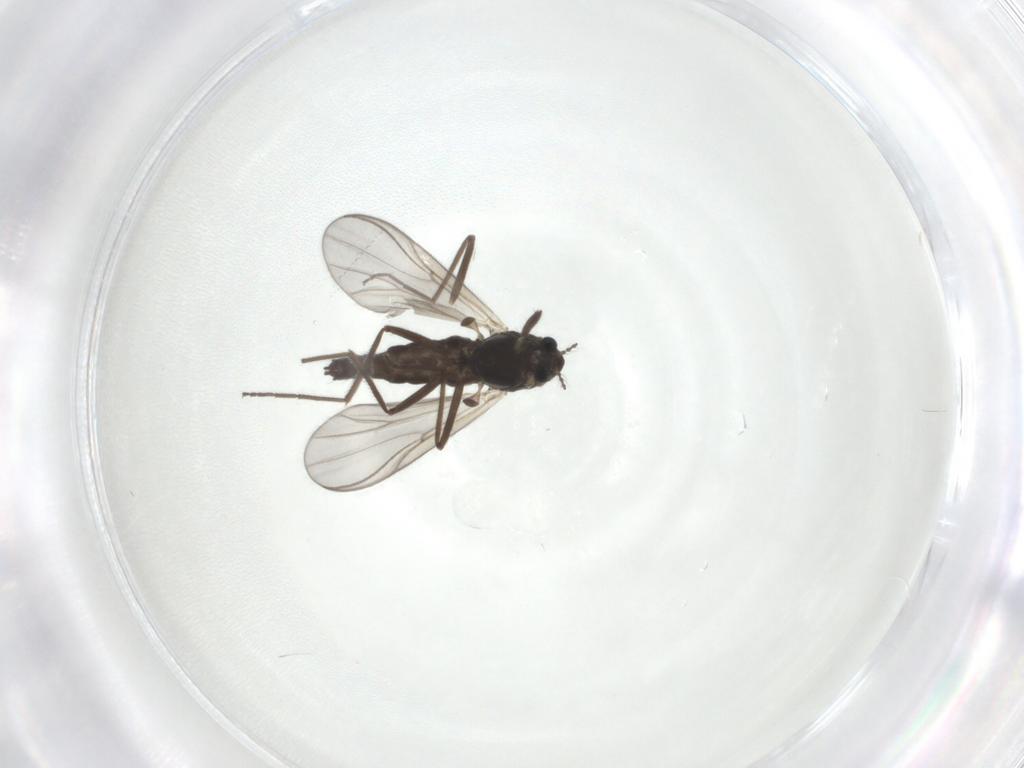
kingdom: Animalia
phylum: Arthropoda
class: Insecta
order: Diptera
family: Chironomidae
